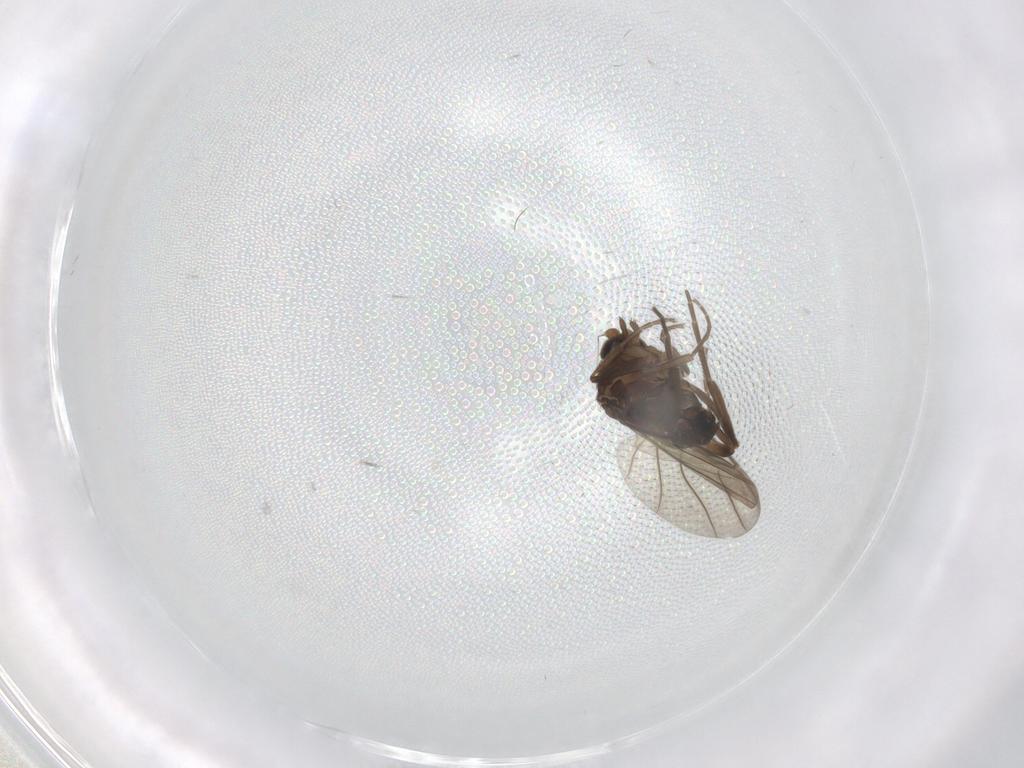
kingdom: Animalia
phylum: Arthropoda
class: Insecta
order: Diptera
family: Sciaridae
